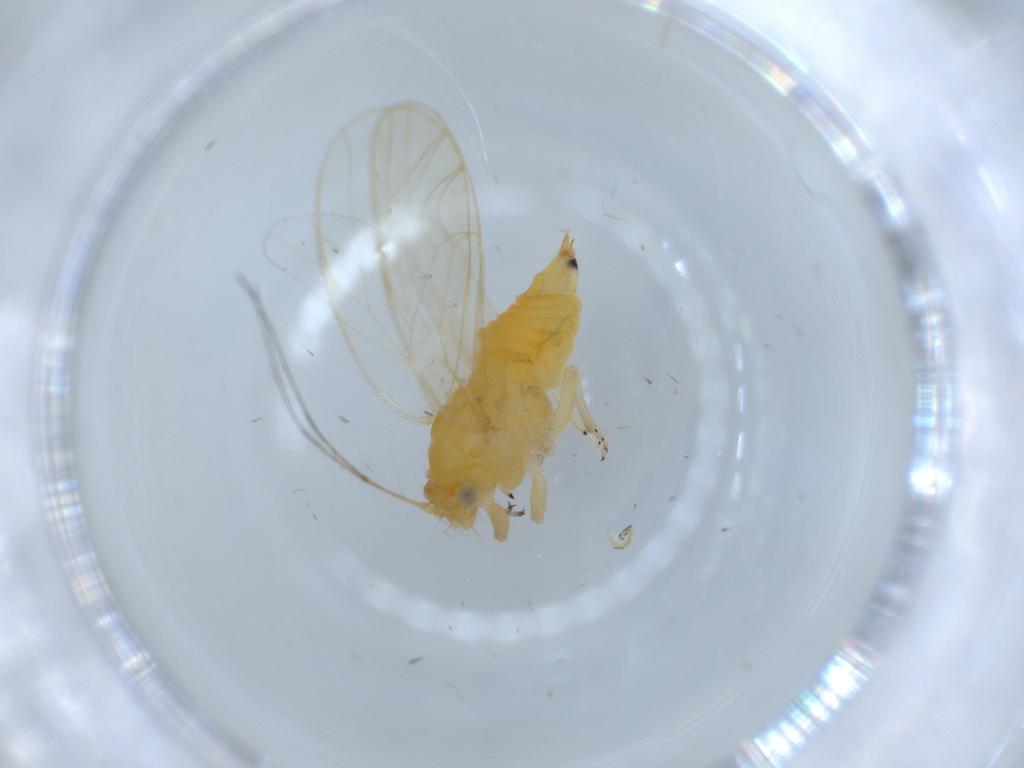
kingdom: Animalia
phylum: Arthropoda
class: Insecta
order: Hemiptera
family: Psyllidae
